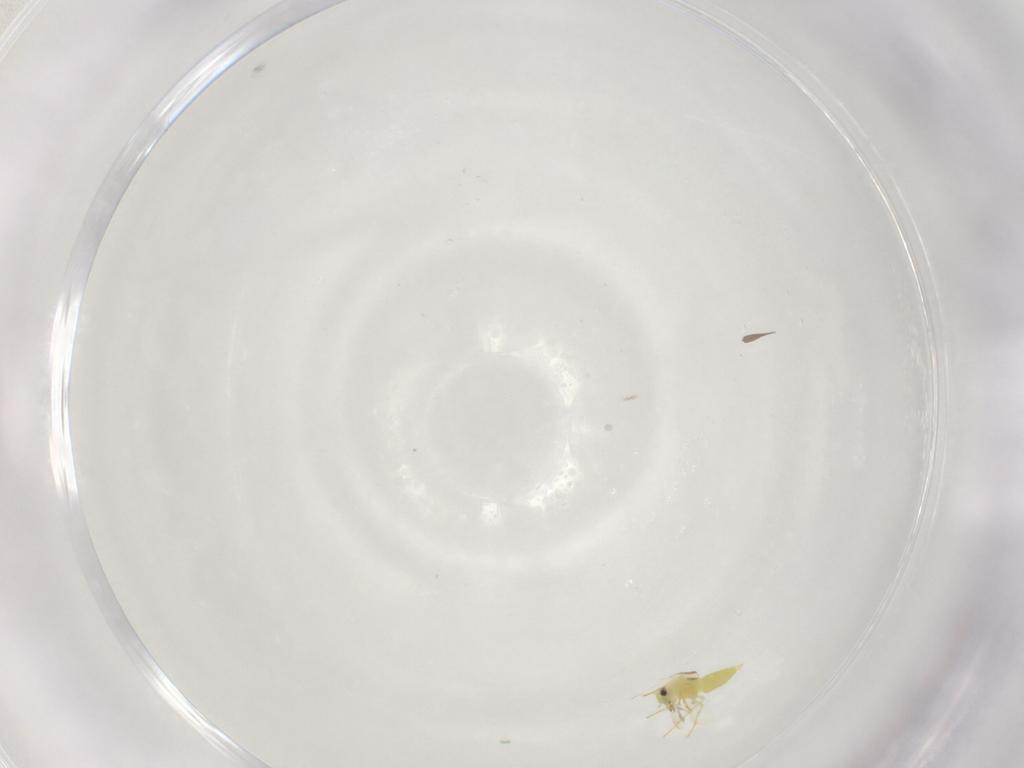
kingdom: Animalia
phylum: Arthropoda
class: Insecta
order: Hemiptera
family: Aleyrodidae
